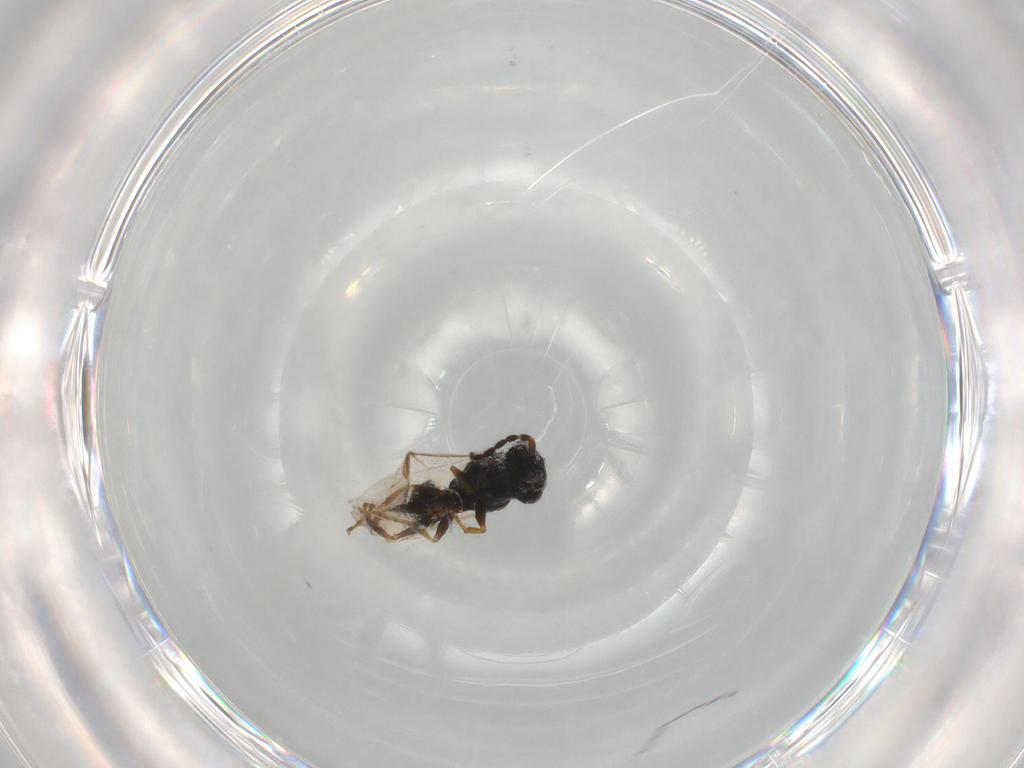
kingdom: Animalia
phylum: Arthropoda
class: Insecta
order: Hymenoptera
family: Dryinidae
